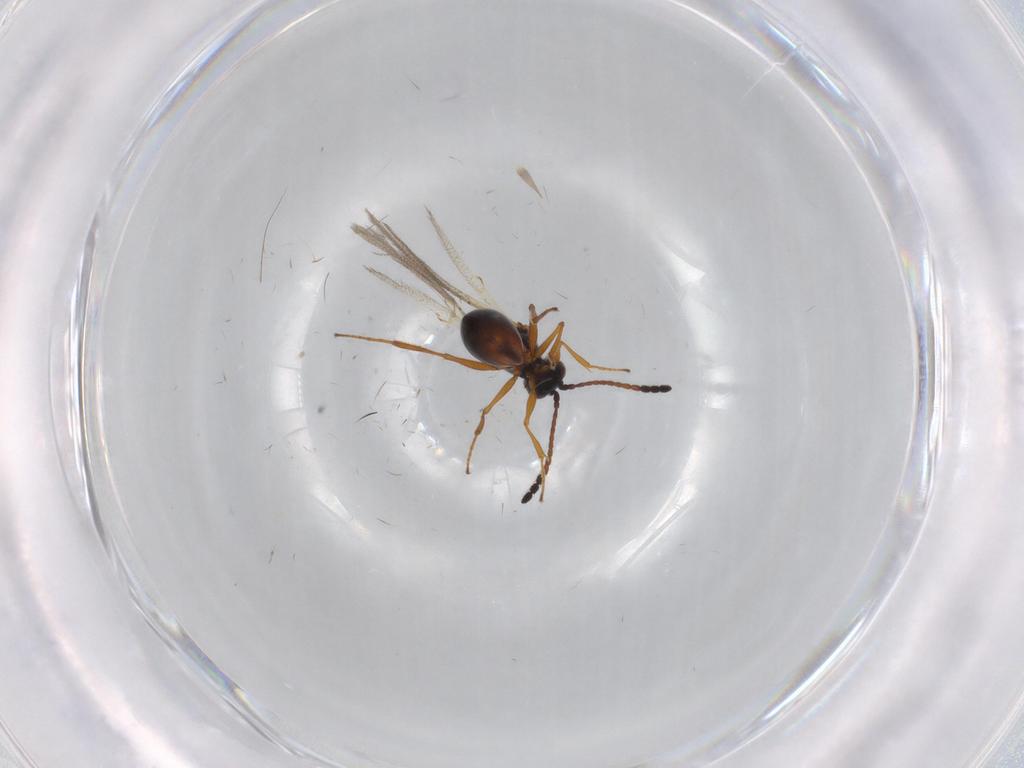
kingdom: Animalia
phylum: Arthropoda
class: Insecta
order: Hymenoptera
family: Figitidae
